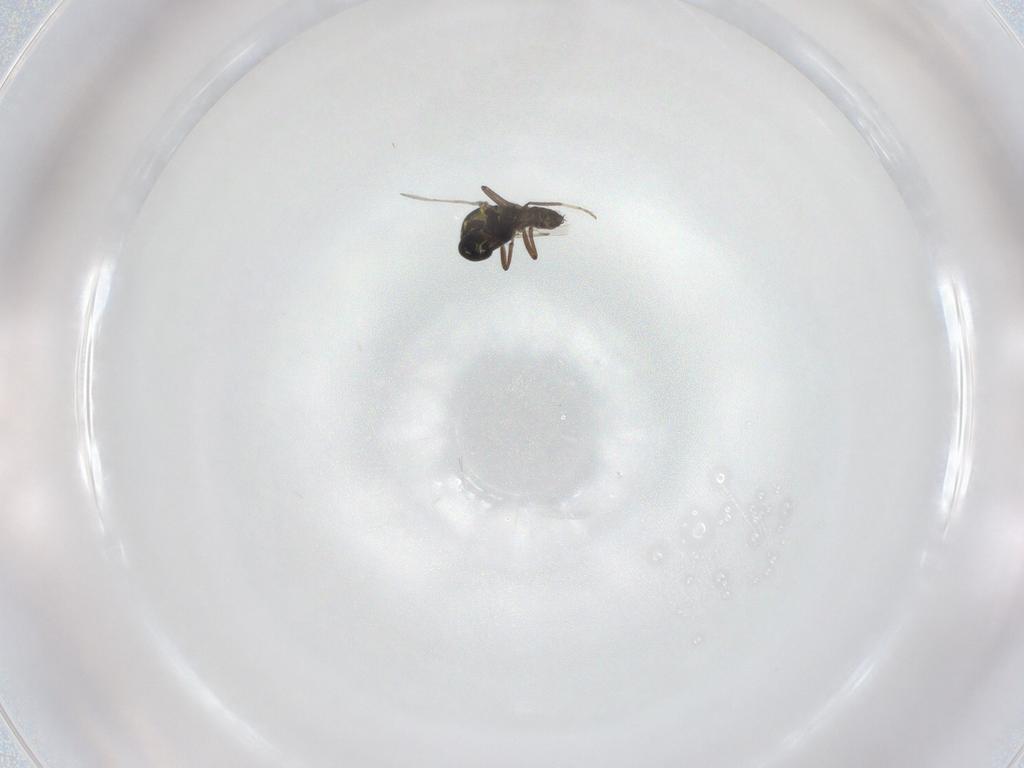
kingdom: Animalia
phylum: Arthropoda
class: Insecta
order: Diptera
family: Ceratopogonidae
